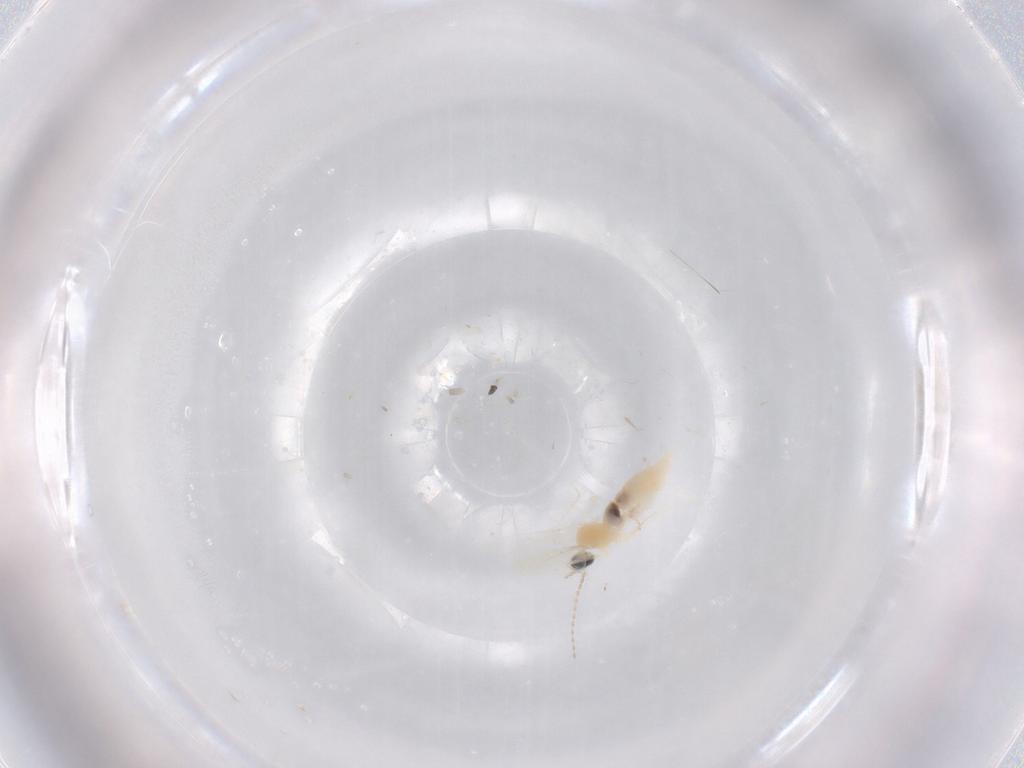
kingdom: Animalia
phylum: Arthropoda
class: Insecta
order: Diptera
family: Cecidomyiidae
